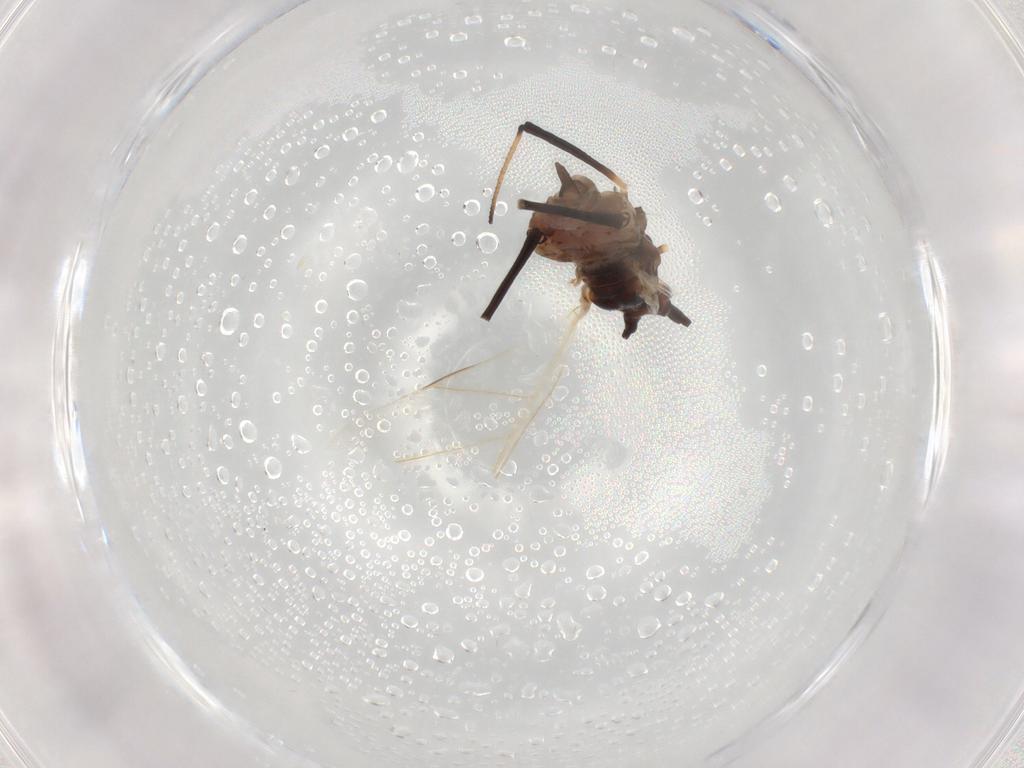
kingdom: Animalia
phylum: Arthropoda
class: Insecta
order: Hemiptera
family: Aphididae
